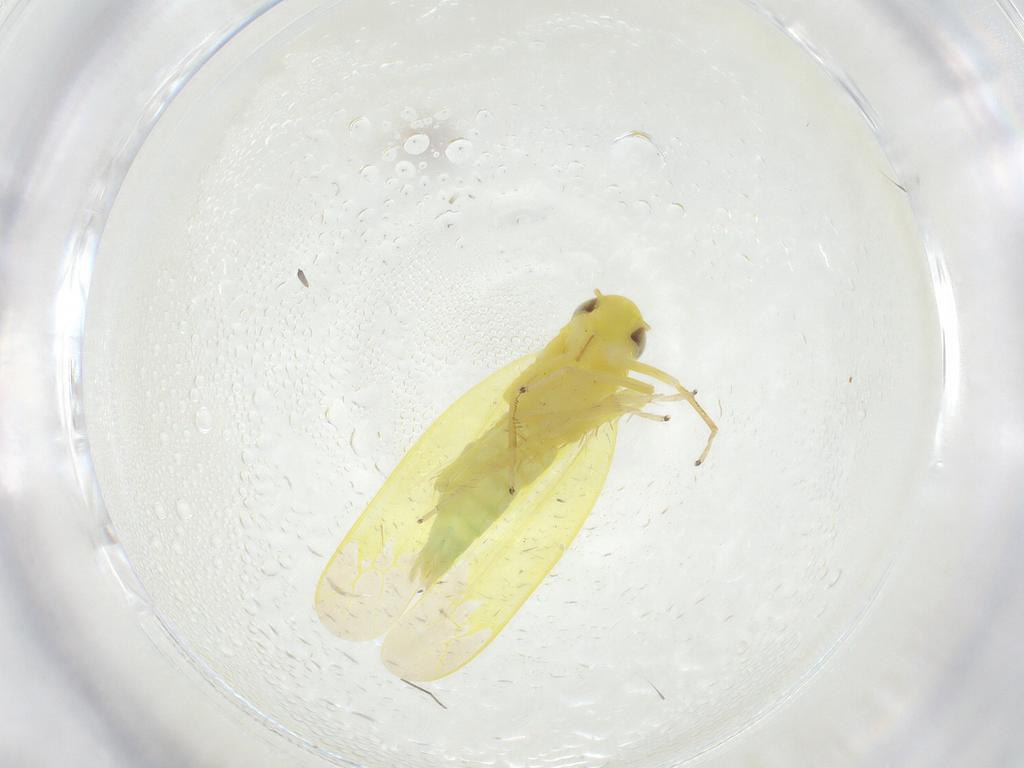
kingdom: Animalia
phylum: Arthropoda
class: Insecta
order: Hemiptera
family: Cicadellidae
